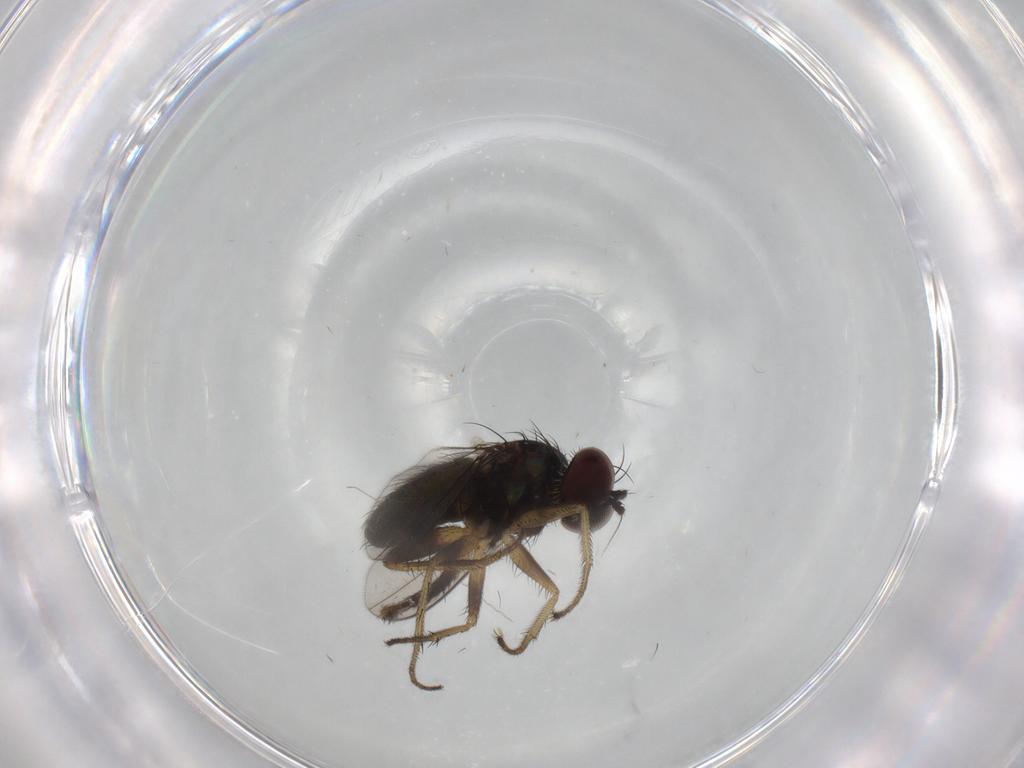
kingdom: Animalia
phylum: Arthropoda
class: Insecta
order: Diptera
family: Dolichopodidae
